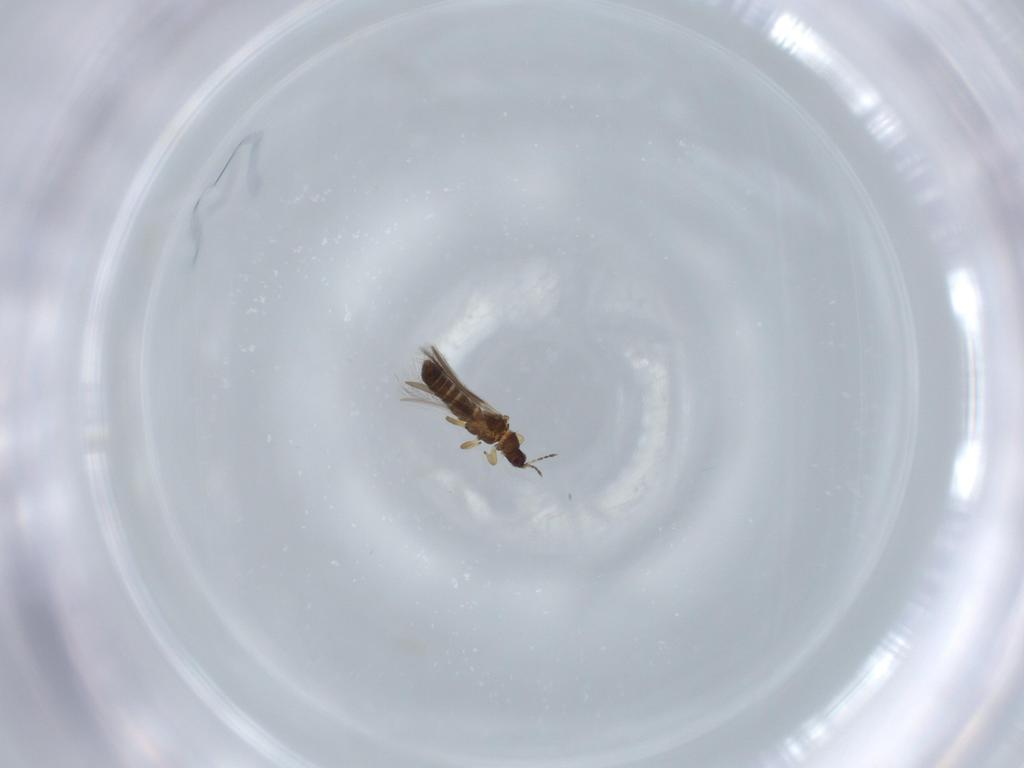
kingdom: Animalia
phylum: Arthropoda
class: Insecta
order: Thysanoptera
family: Thripidae
